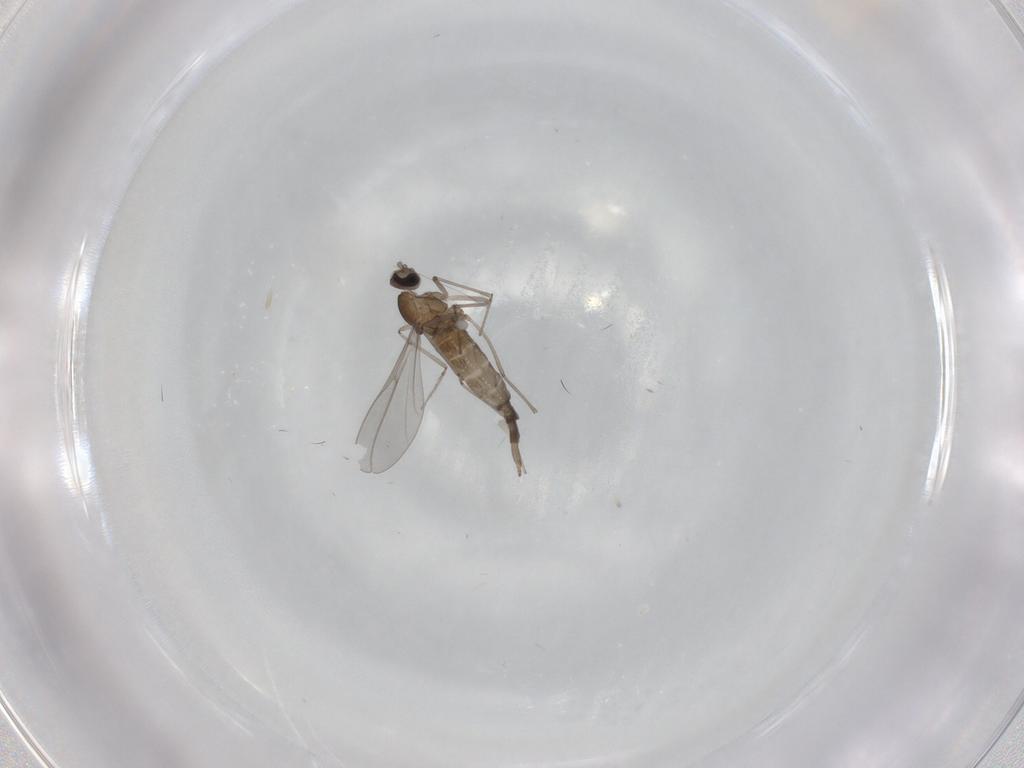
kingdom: Animalia
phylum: Arthropoda
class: Insecta
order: Diptera
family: Cecidomyiidae
